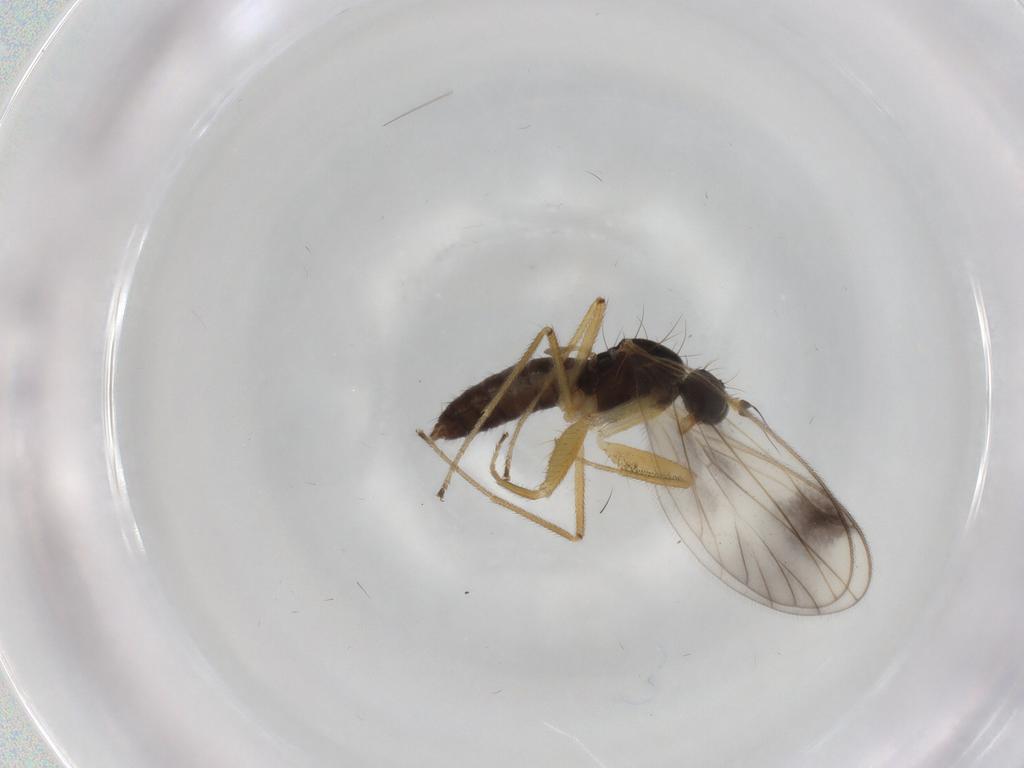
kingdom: Animalia
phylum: Arthropoda
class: Insecta
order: Diptera
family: Empididae
